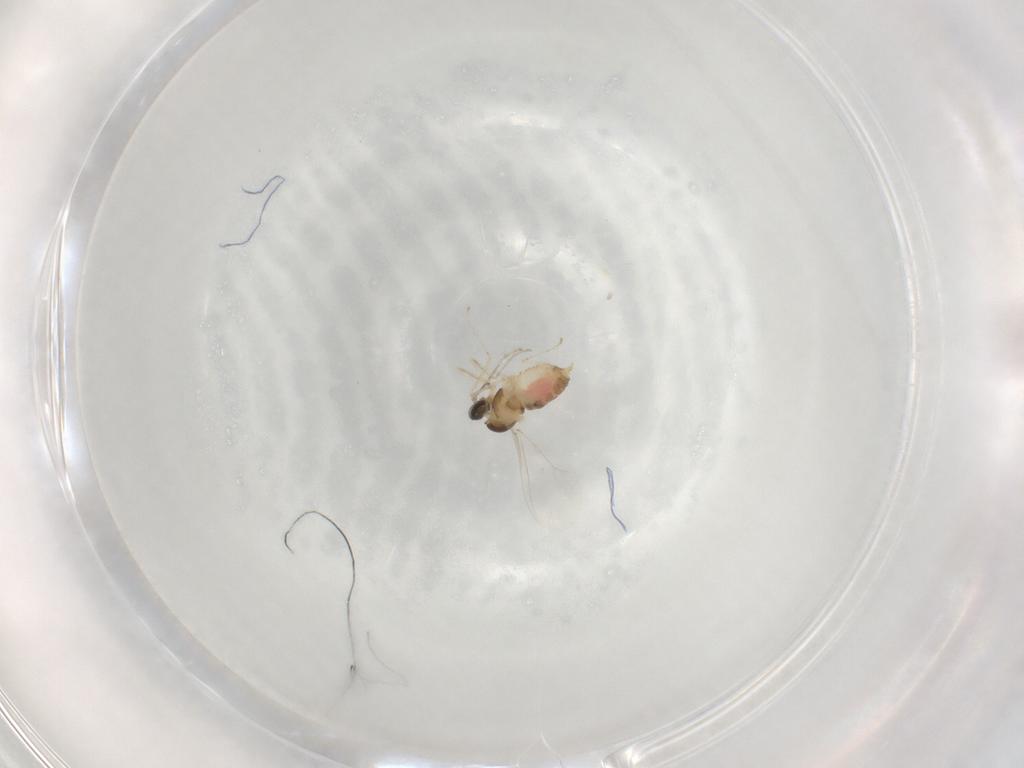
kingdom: Animalia
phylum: Arthropoda
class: Insecta
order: Diptera
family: Cecidomyiidae
